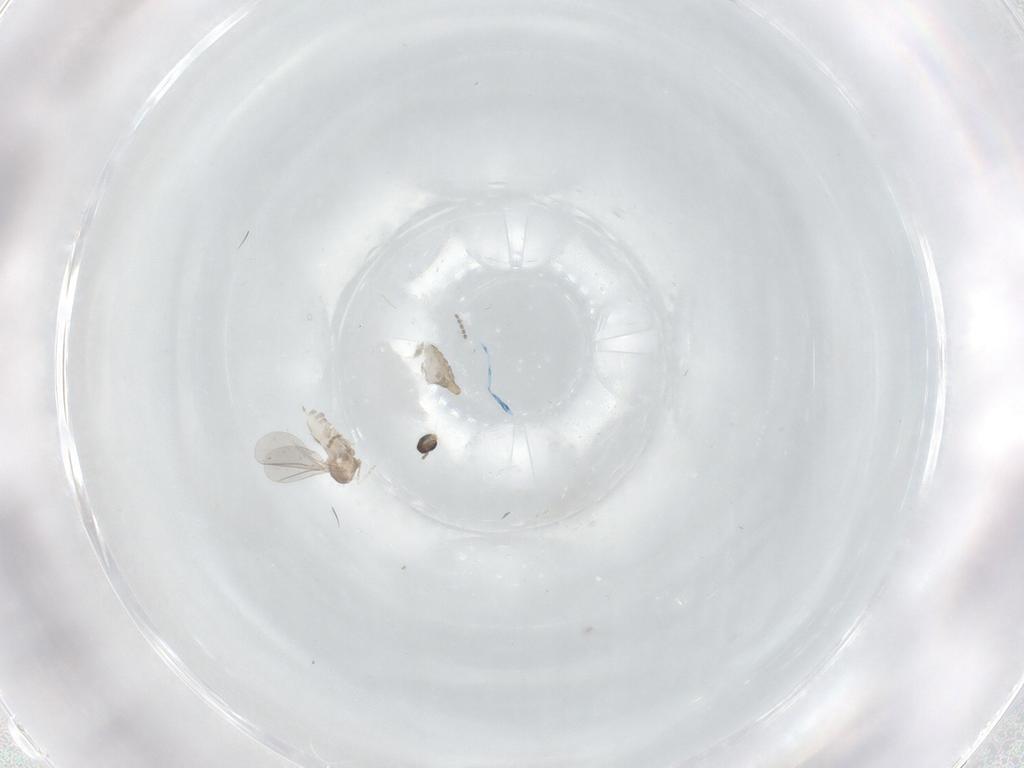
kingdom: Animalia
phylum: Arthropoda
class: Insecta
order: Diptera
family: Cecidomyiidae
